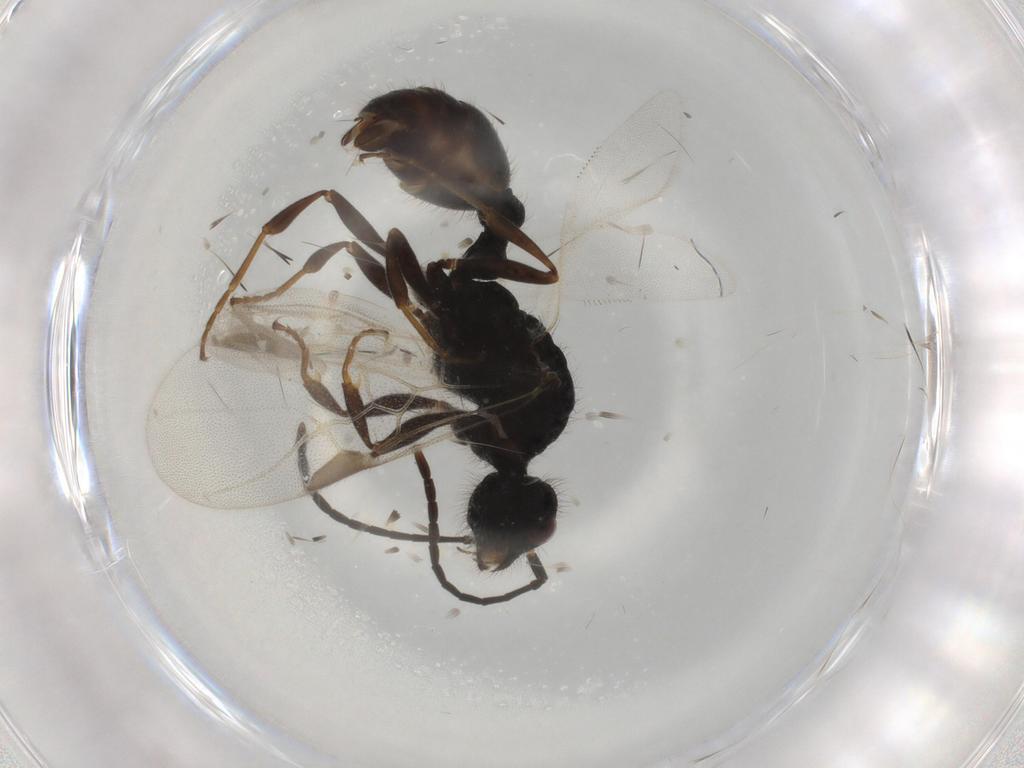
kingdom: Animalia
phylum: Arthropoda
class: Insecta
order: Hymenoptera
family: Formicidae
